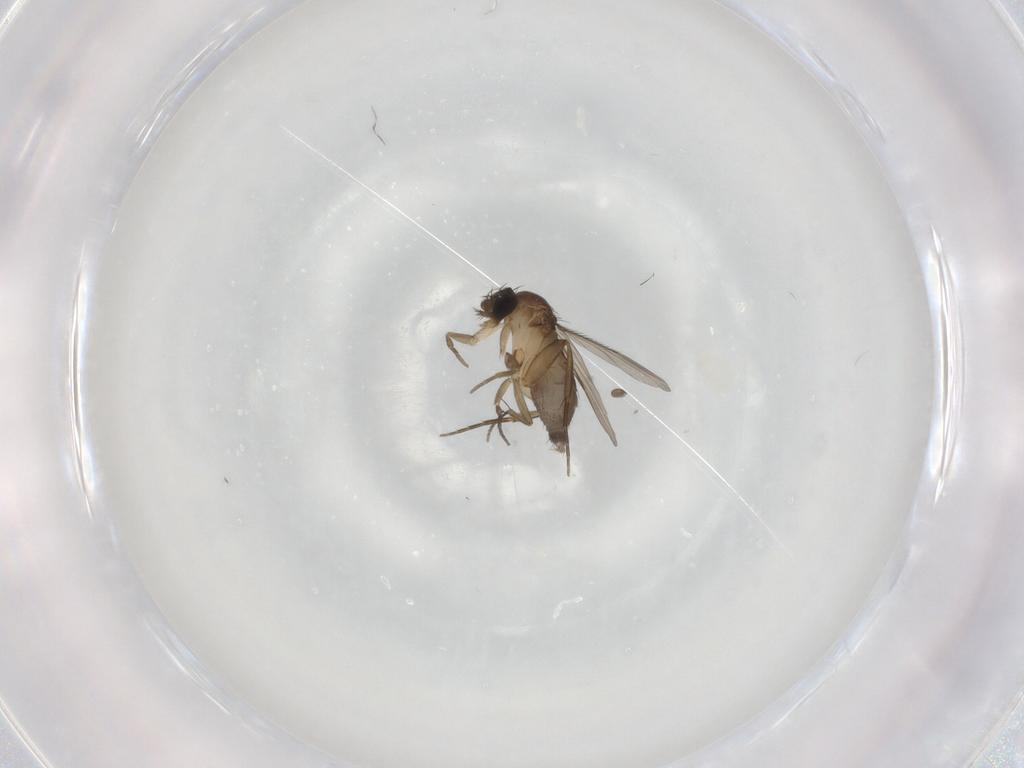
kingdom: Animalia
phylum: Arthropoda
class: Insecta
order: Diptera
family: Phoridae
